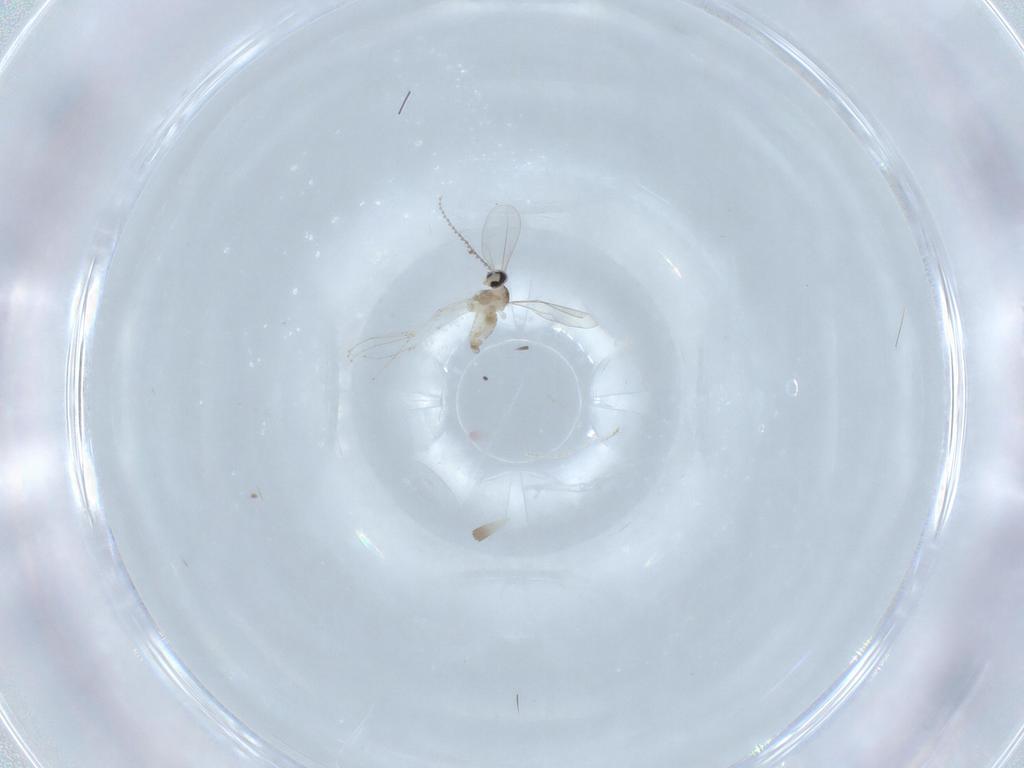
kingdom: Animalia
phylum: Arthropoda
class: Insecta
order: Diptera
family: Cecidomyiidae
